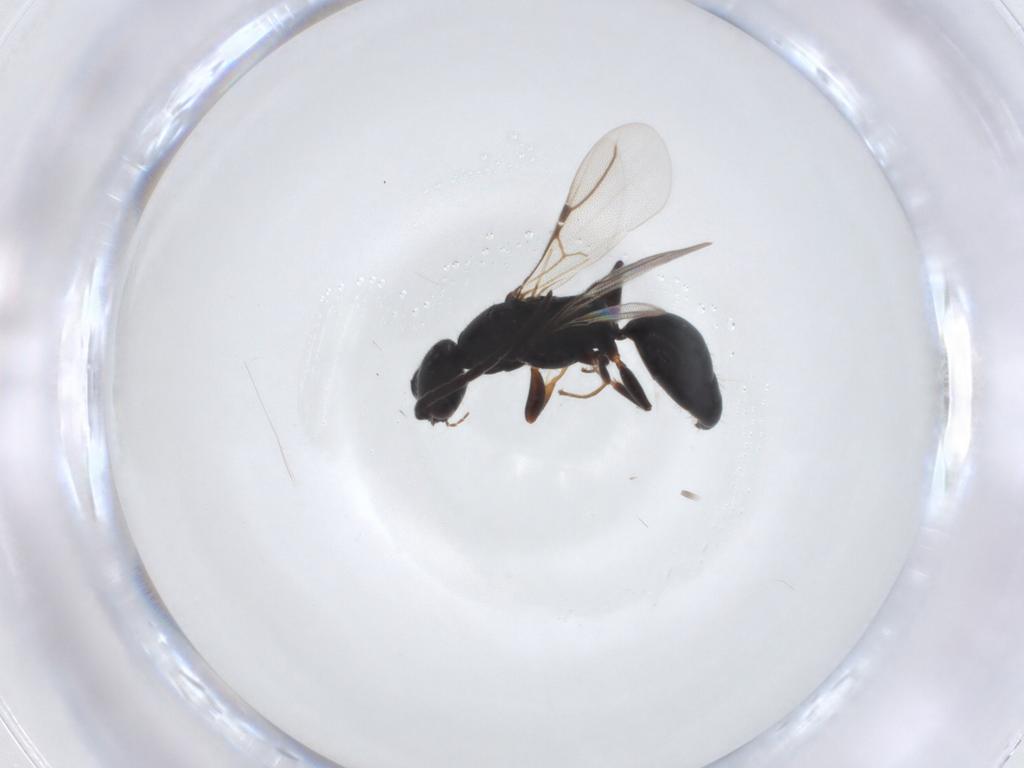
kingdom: Animalia
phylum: Arthropoda
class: Insecta
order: Hymenoptera
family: Bethylidae
